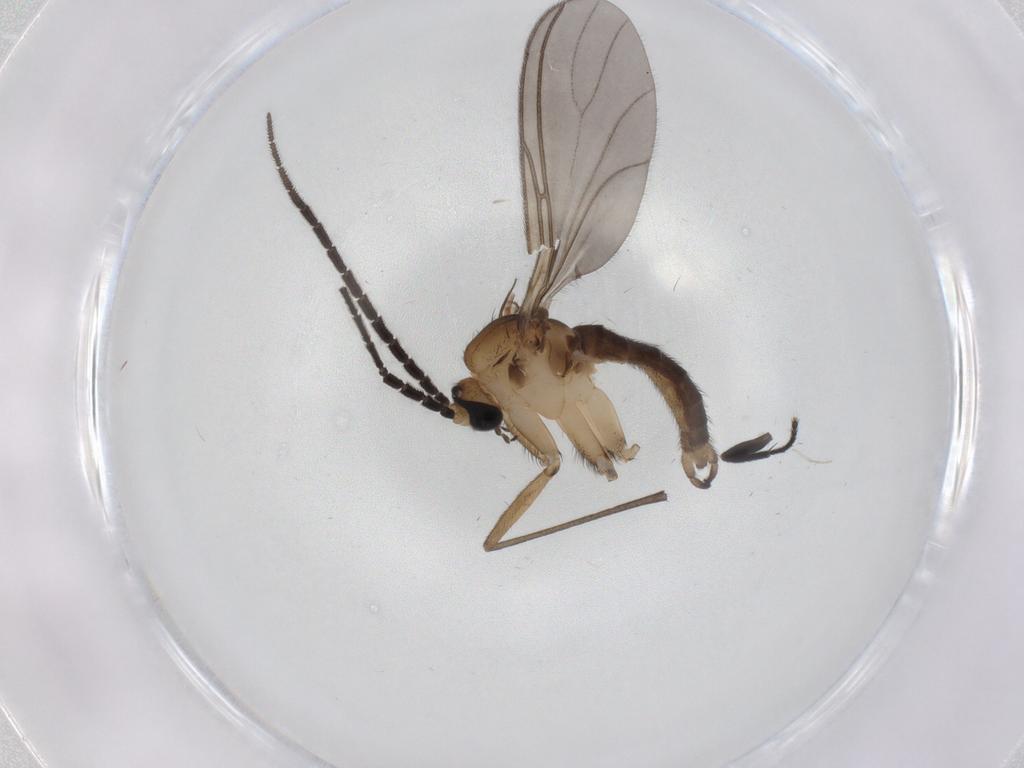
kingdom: Animalia
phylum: Arthropoda
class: Insecta
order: Diptera
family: Sciaridae
